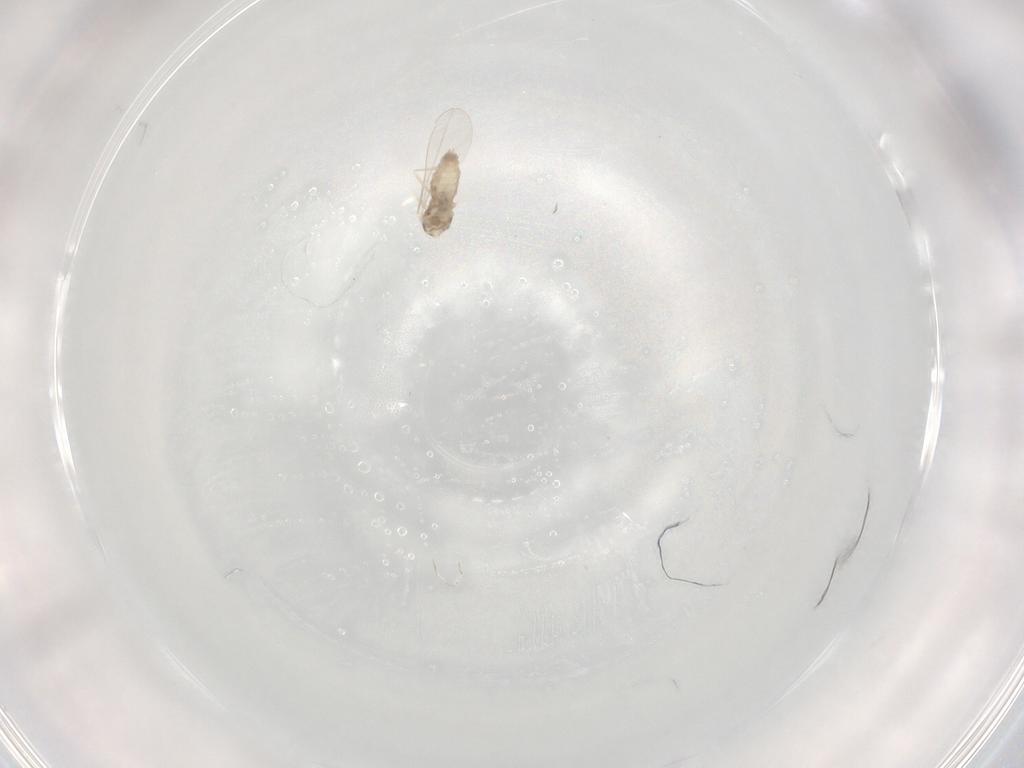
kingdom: Animalia
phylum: Arthropoda
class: Insecta
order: Diptera
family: Cecidomyiidae
